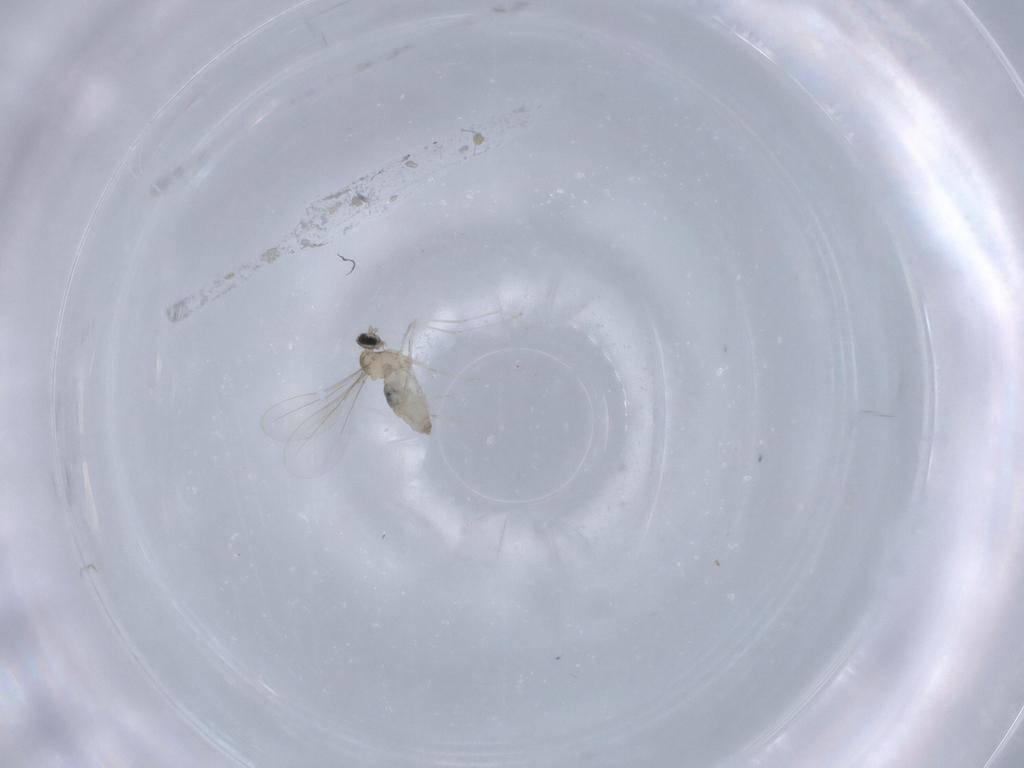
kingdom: Animalia
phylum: Arthropoda
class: Insecta
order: Diptera
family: Cecidomyiidae
